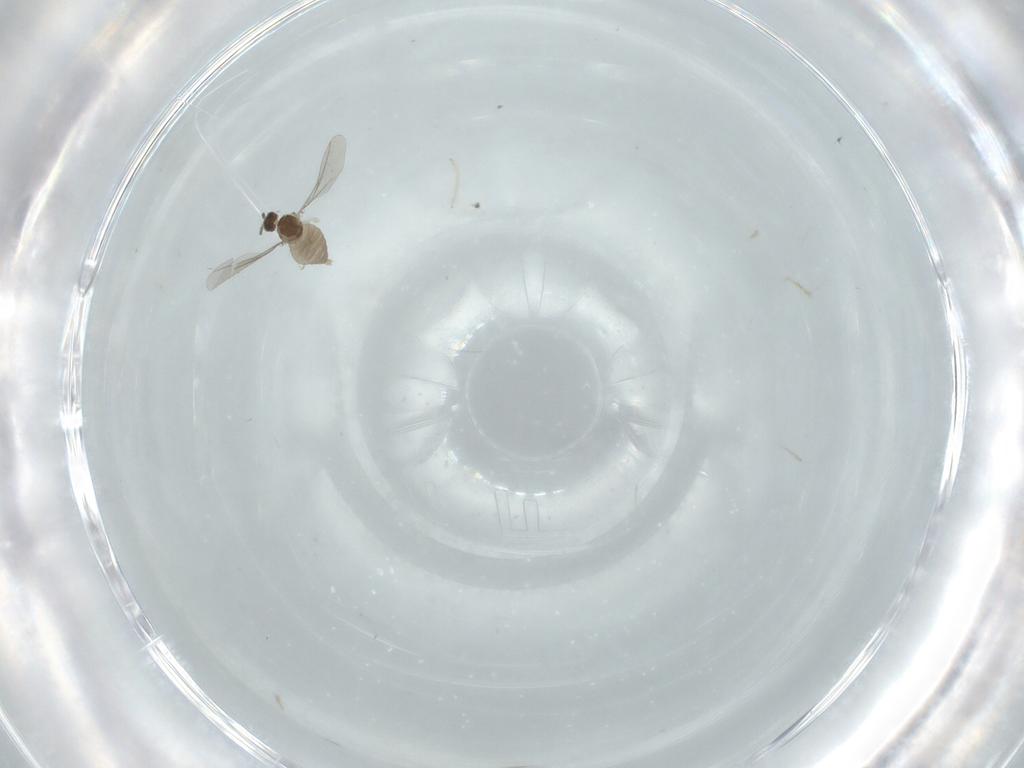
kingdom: Animalia
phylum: Arthropoda
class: Insecta
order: Diptera
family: Cecidomyiidae
